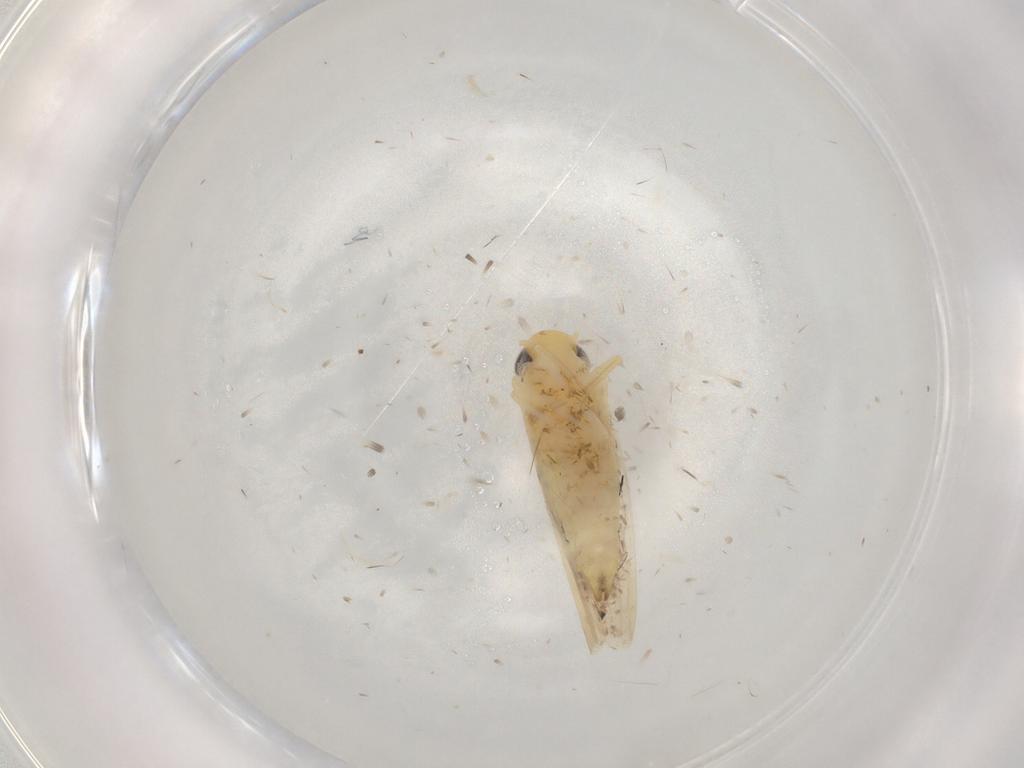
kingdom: Animalia
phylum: Arthropoda
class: Insecta
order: Hemiptera
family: Cicadellidae
